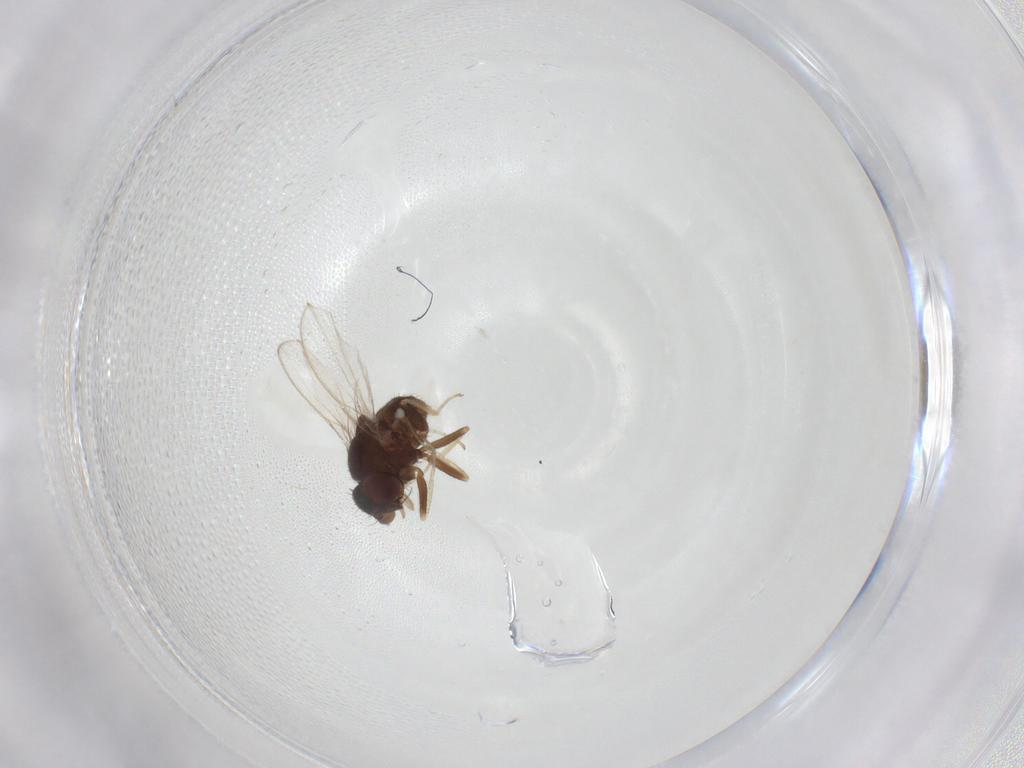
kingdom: Animalia
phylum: Arthropoda
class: Insecta
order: Diptera
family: Milichiidae
